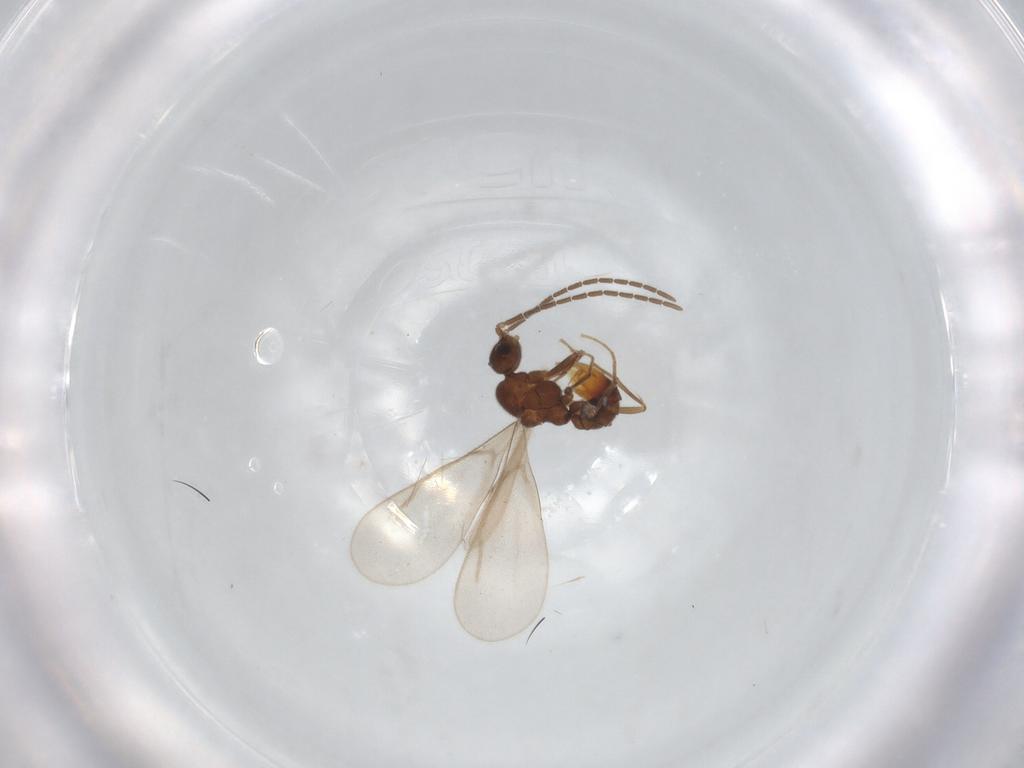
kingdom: Animalia
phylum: Arthropoda
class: Insecta
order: Hymenoptera
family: Formicidae
